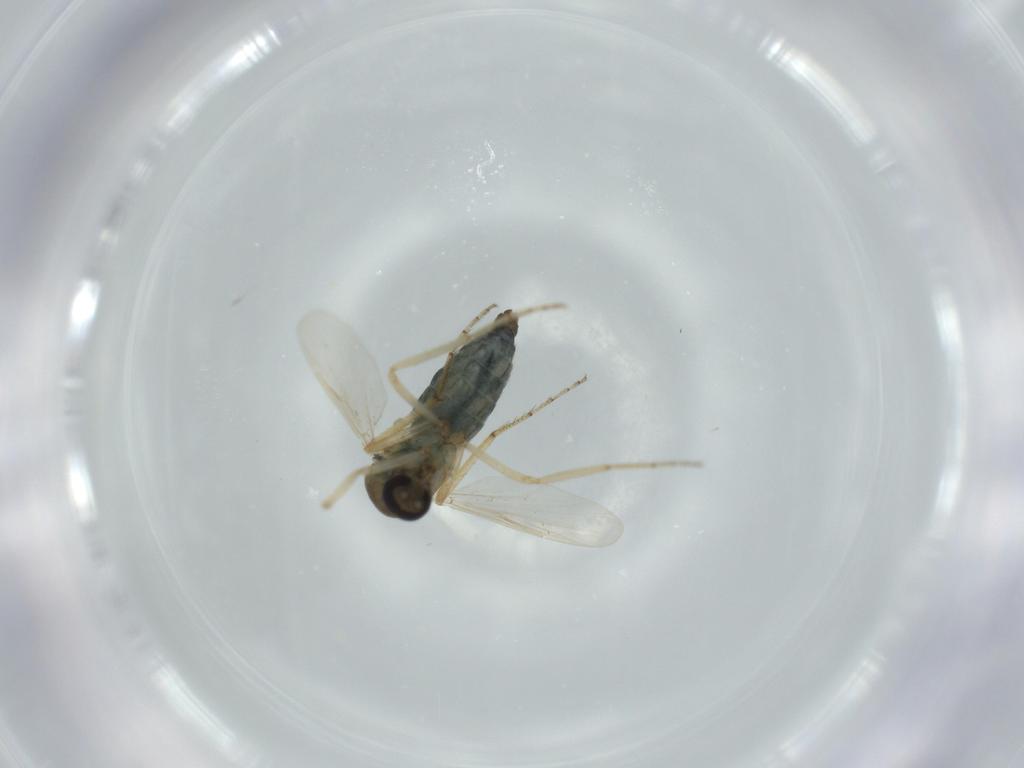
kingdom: Animalia
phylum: Arthropoda
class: Insecta
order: Diptera
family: Ceratopogonidae
